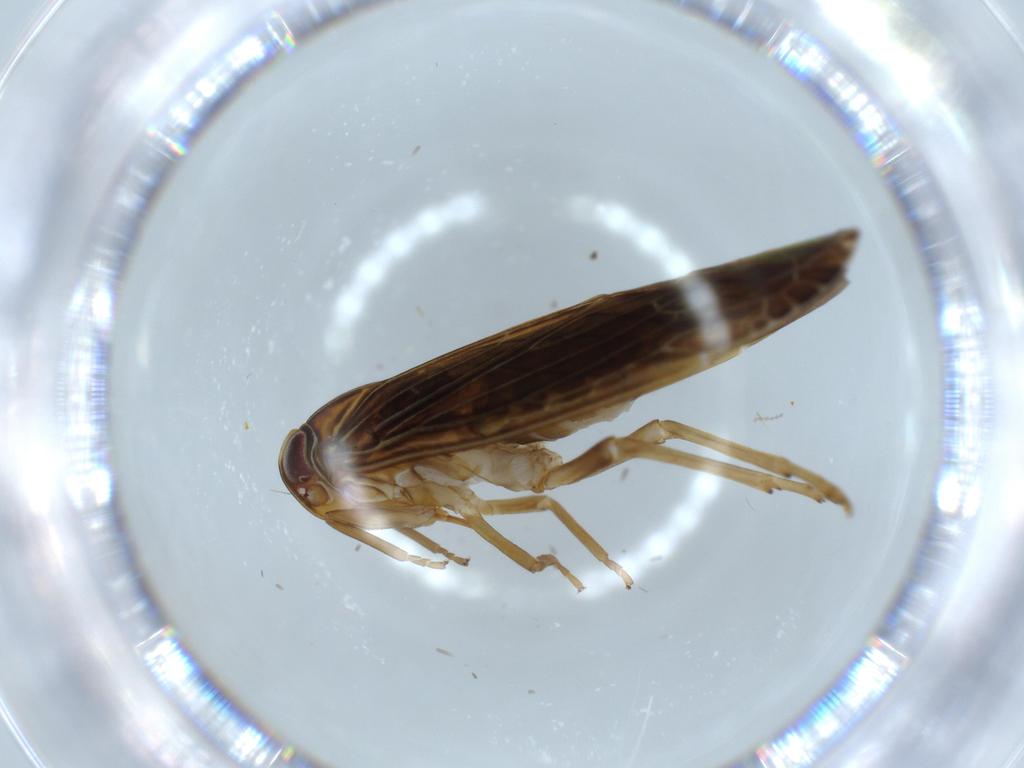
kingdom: Animalia
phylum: Arthropoda
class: Insecta
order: Hemiptera
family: Achilidae
